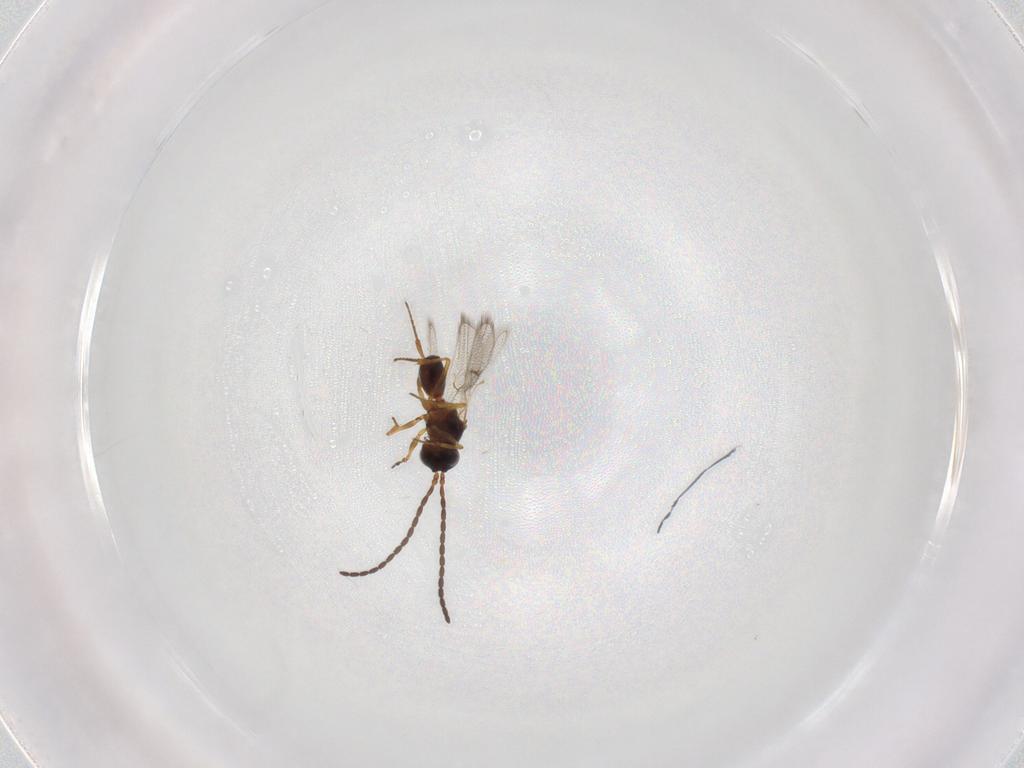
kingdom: Animalia
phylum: Arthropoda
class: Insecta
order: Hymenoptera
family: Figitidae
